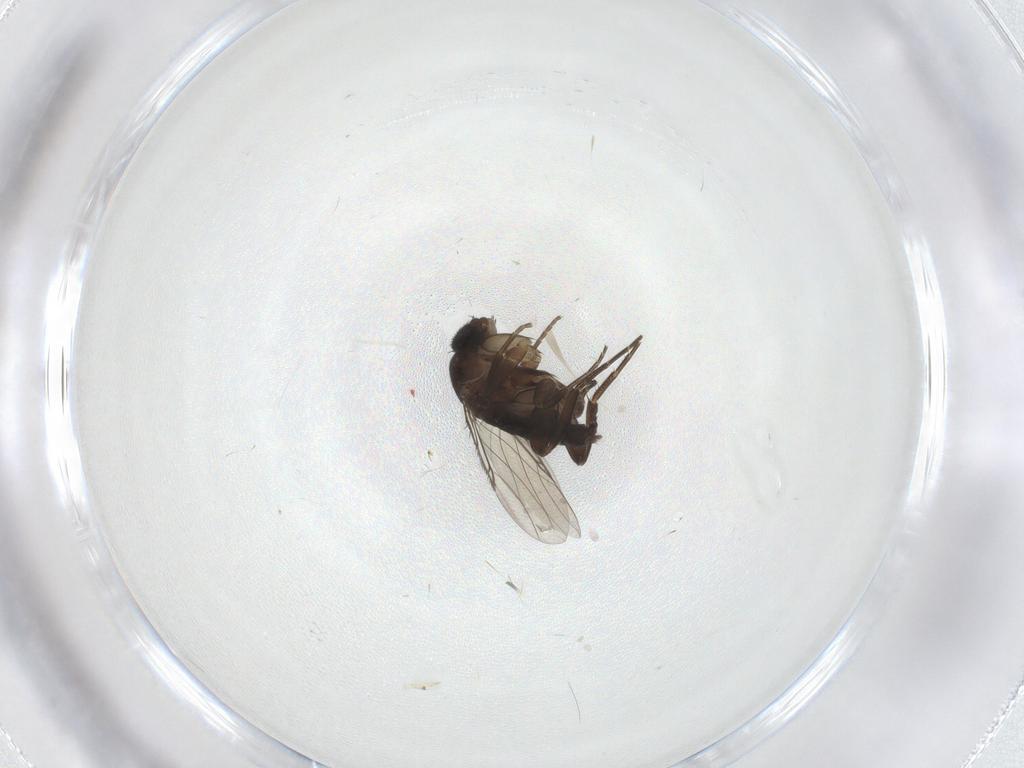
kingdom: Animalia
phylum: Arthropoda
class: Insecta
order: Diptera
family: Phoridae
